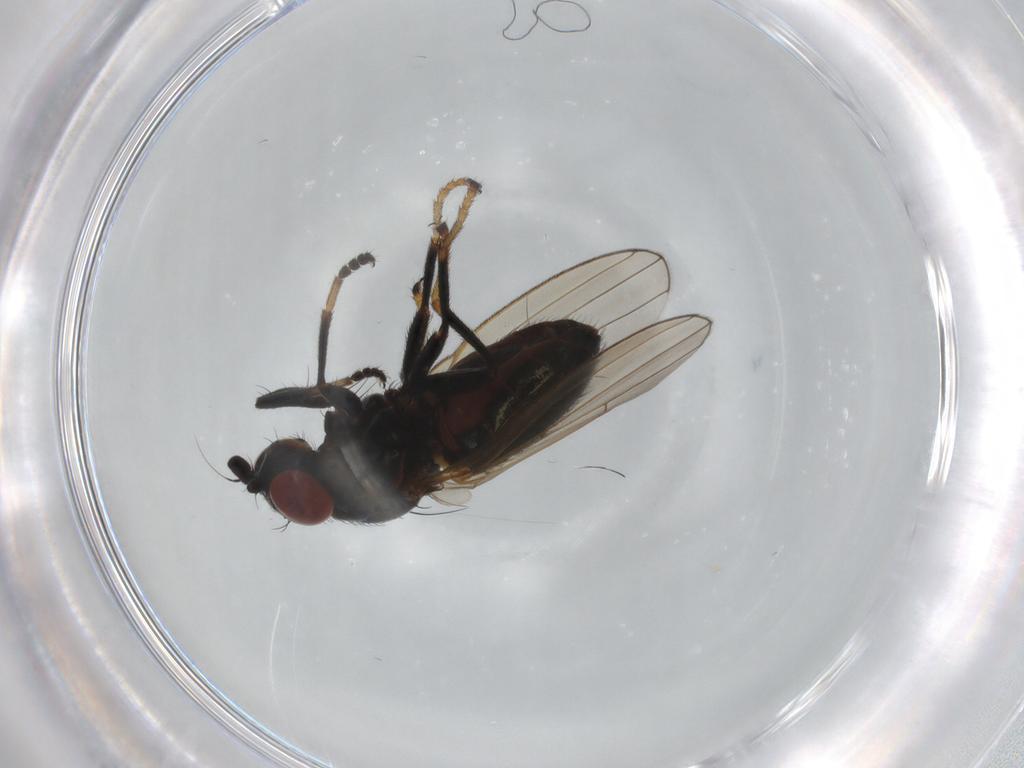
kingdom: Animalia
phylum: Arthropoda
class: Insecta
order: Diptera
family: Chamaemyiidae
